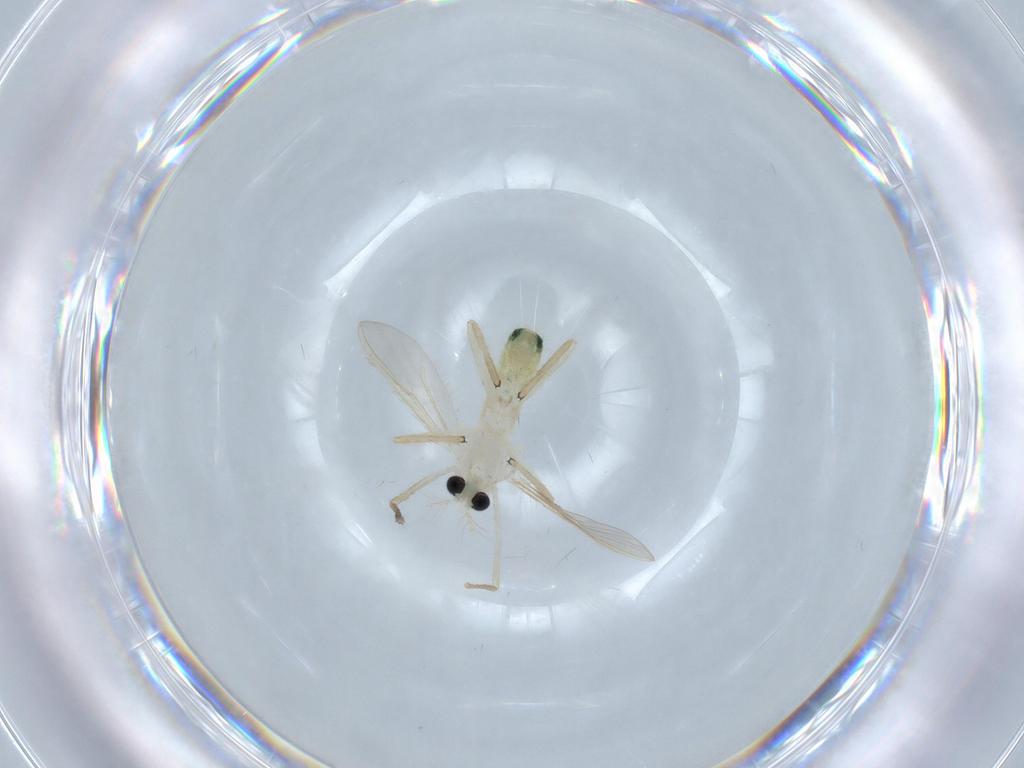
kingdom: Animalia
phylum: Arthropoda
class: Insecta
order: Diptera
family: Chironomidae
